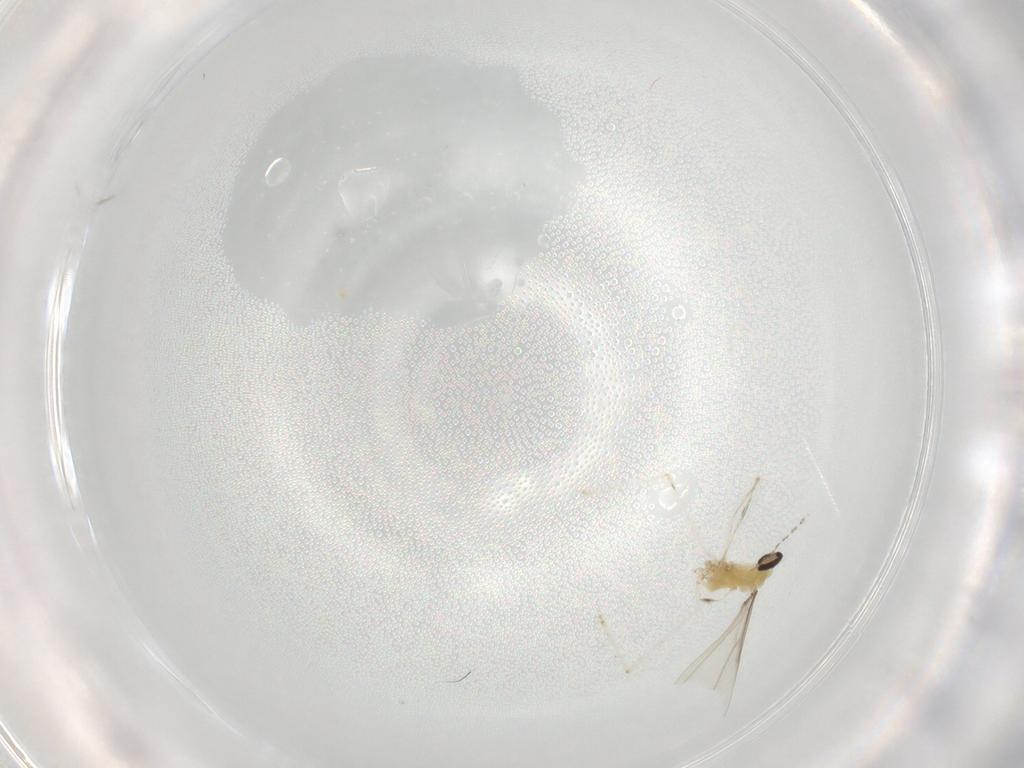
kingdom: Animalia
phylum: Arthropoda
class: Insecta
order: Diptera
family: Cecidomyiidae
